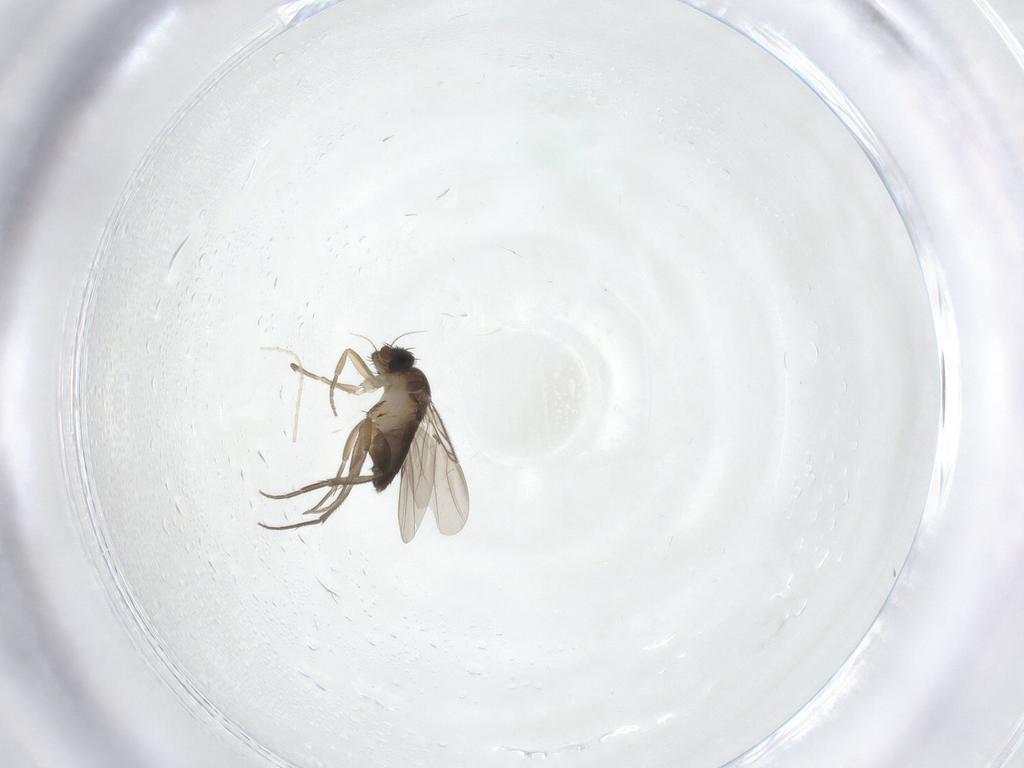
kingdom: Animalia
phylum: Arthropoda
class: Insecta
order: Diptera
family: Phoridae
